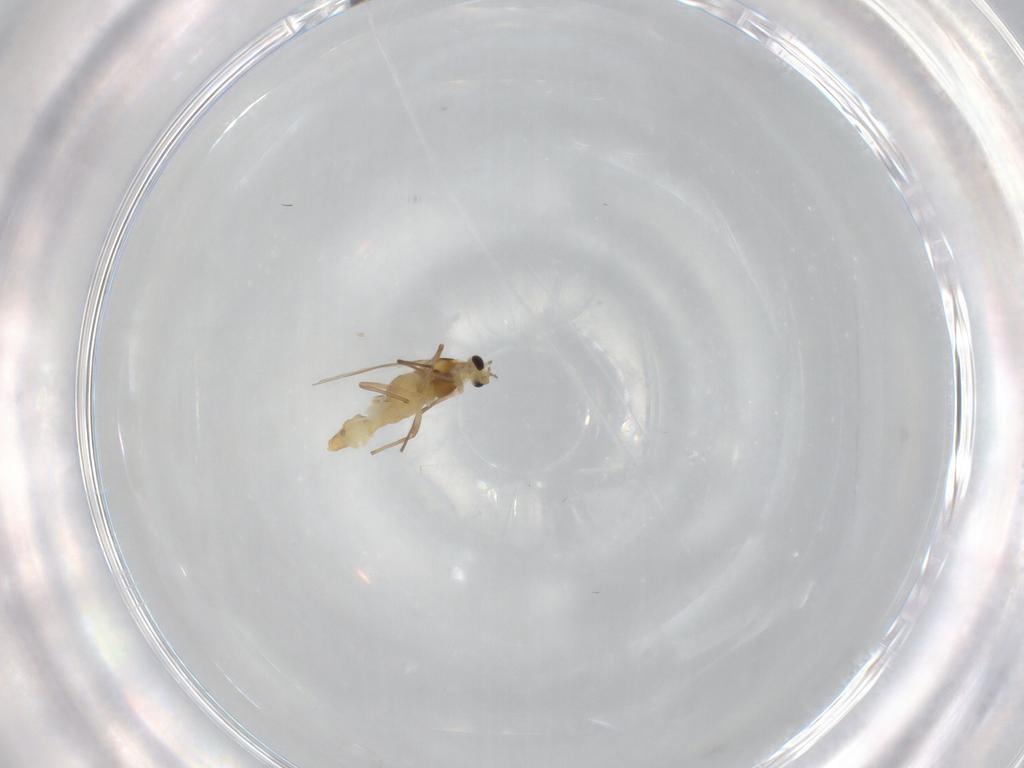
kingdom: Animalia
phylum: Arthropoda
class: Insecta
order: Diptera
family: Chironomidae
